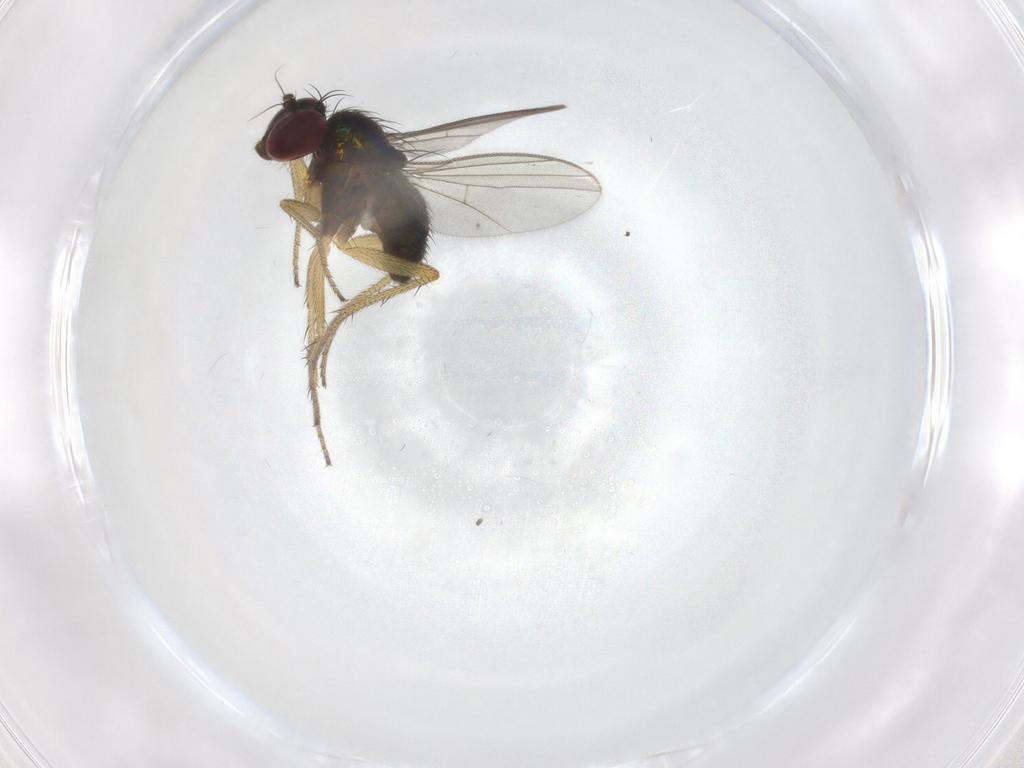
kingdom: Animalia
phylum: Arthropoda
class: Insecta
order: Diptera
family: Dolichopodidae
